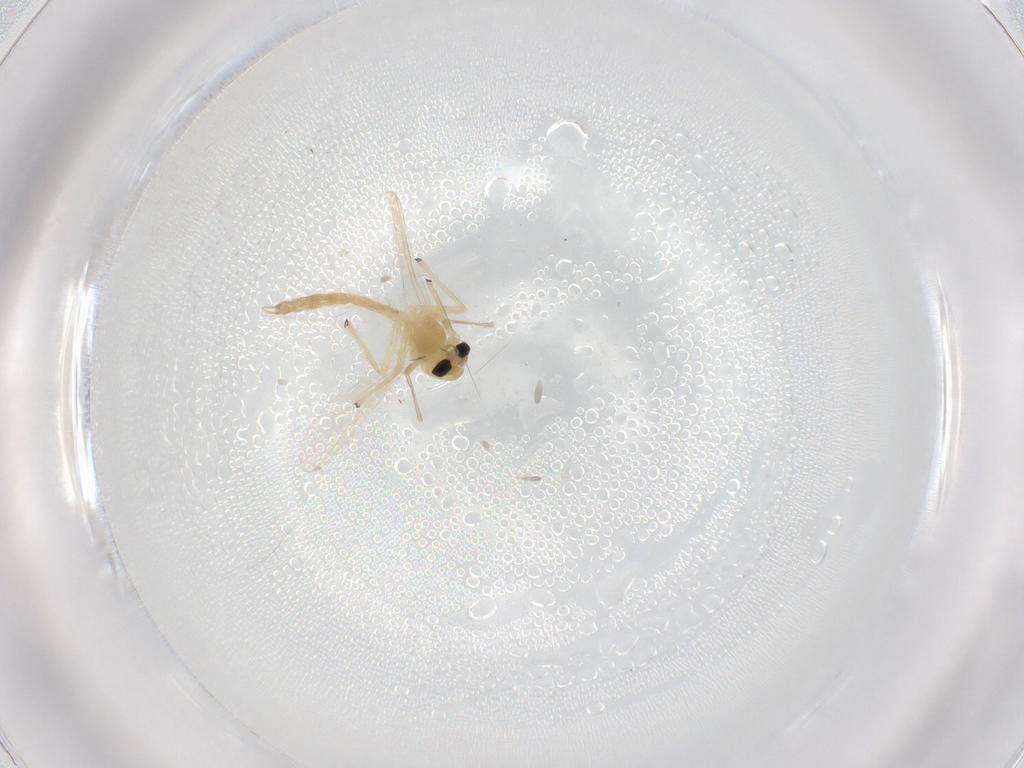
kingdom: Animalia
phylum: Arthropoda
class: Insecta
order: Diptera
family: Chironomidae
